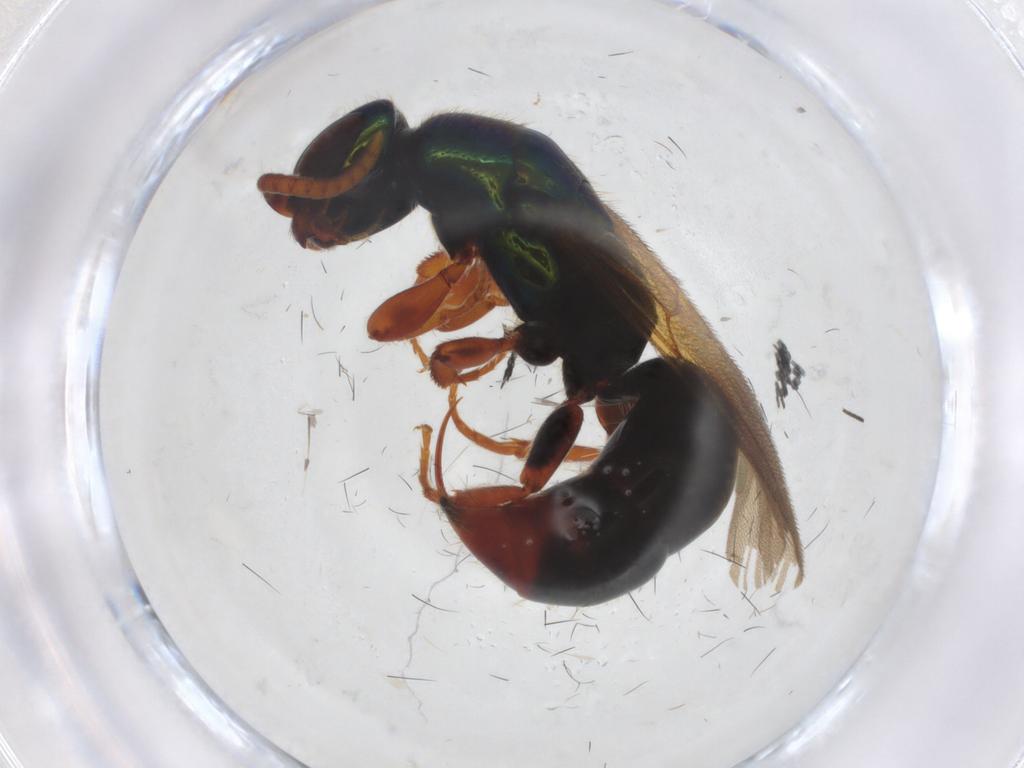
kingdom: Animalia
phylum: Arthropoda
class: Insecta
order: Hymenoptera
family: Bethylidae
